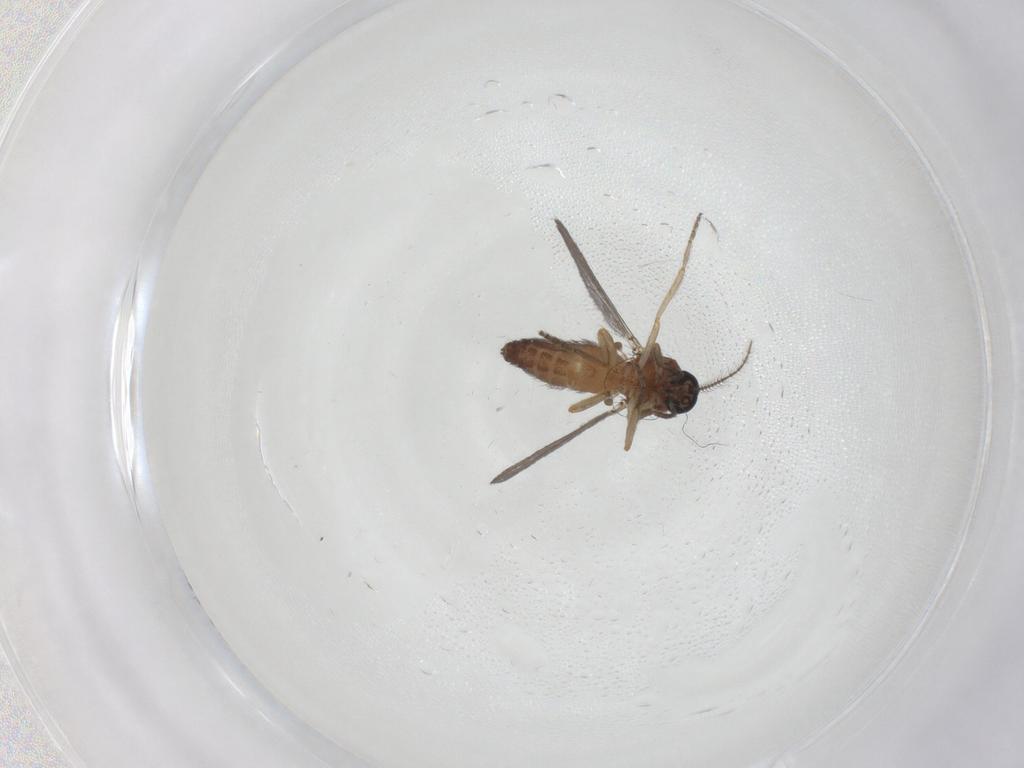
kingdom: Animalia
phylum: Arthropoda
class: Insecta
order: Diptera
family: Ceratopogonidae
